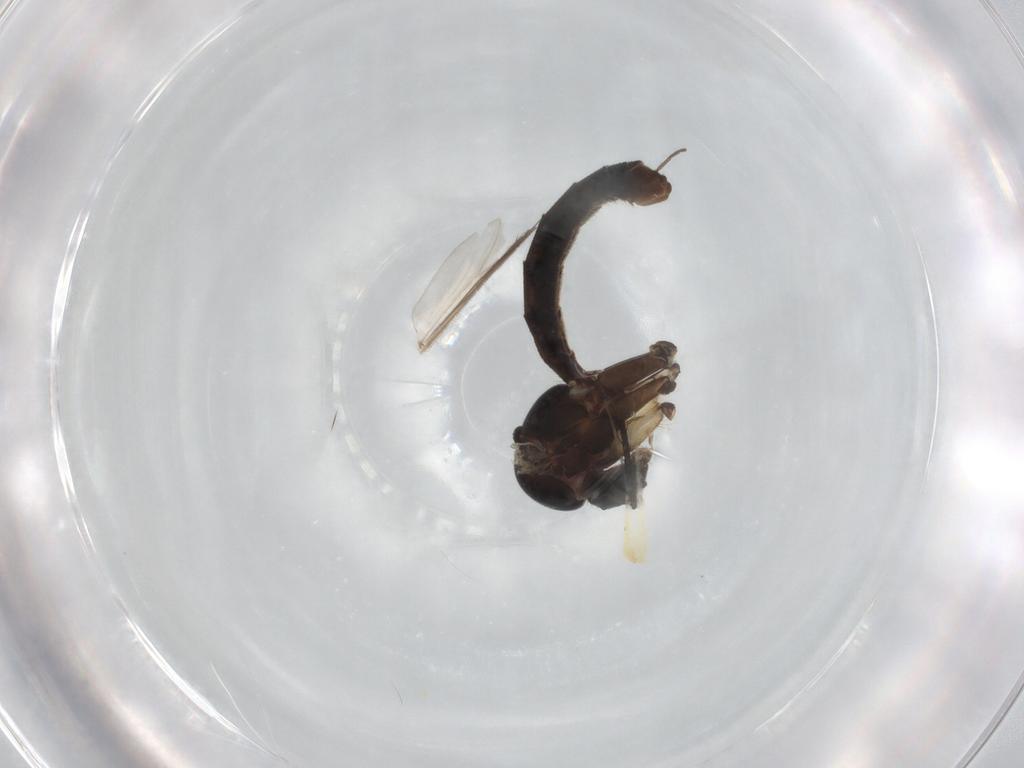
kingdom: Animalia
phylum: Arthropoda
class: Insecta
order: Diptera
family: Mycetophilidae
